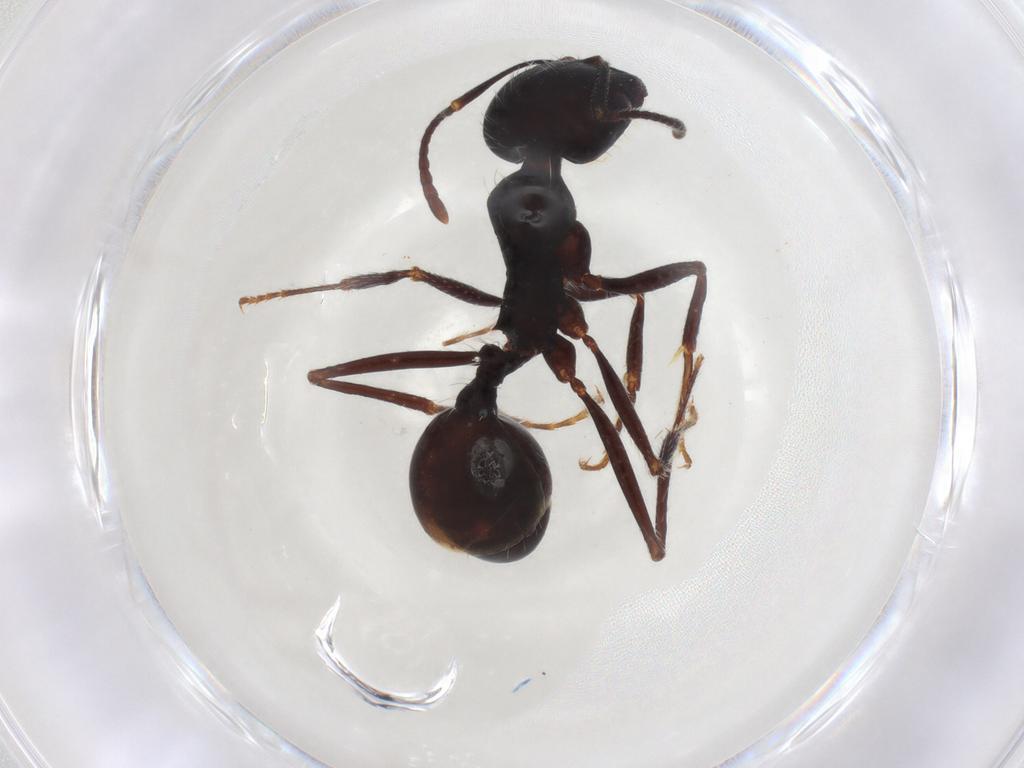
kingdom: Animalia
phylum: Arthropoda
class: Insecta
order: Hymenoptera
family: Formicidae
